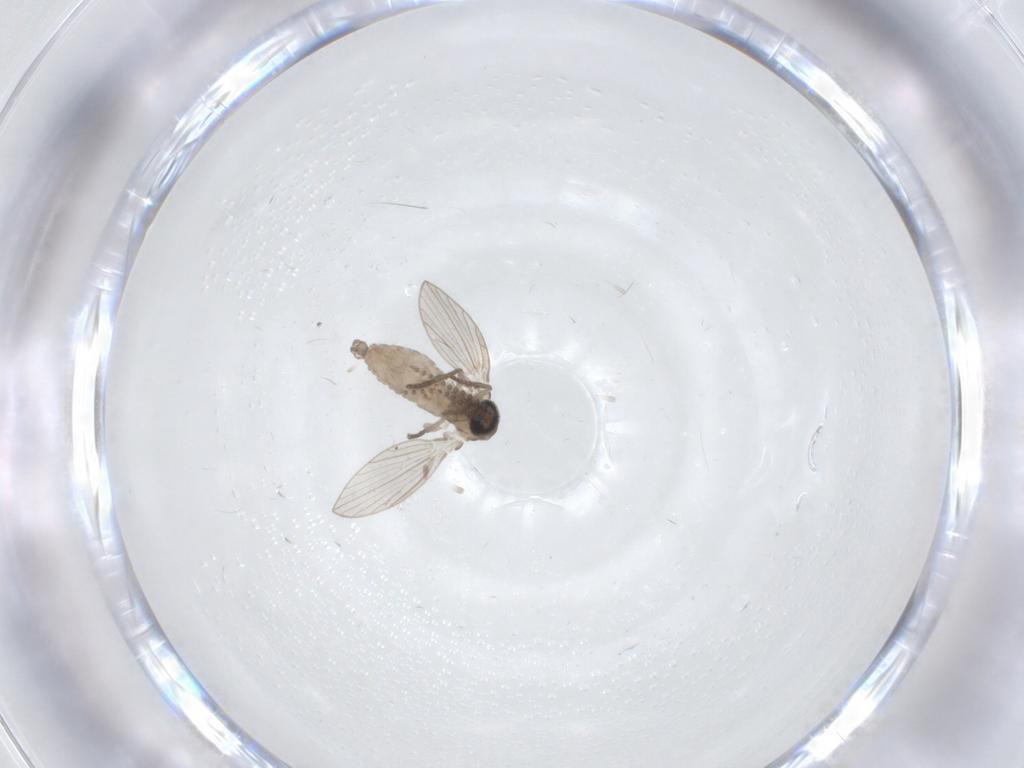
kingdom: Animalia
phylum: Arthropoda
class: Insecta
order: Diptera
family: Psychodidae
